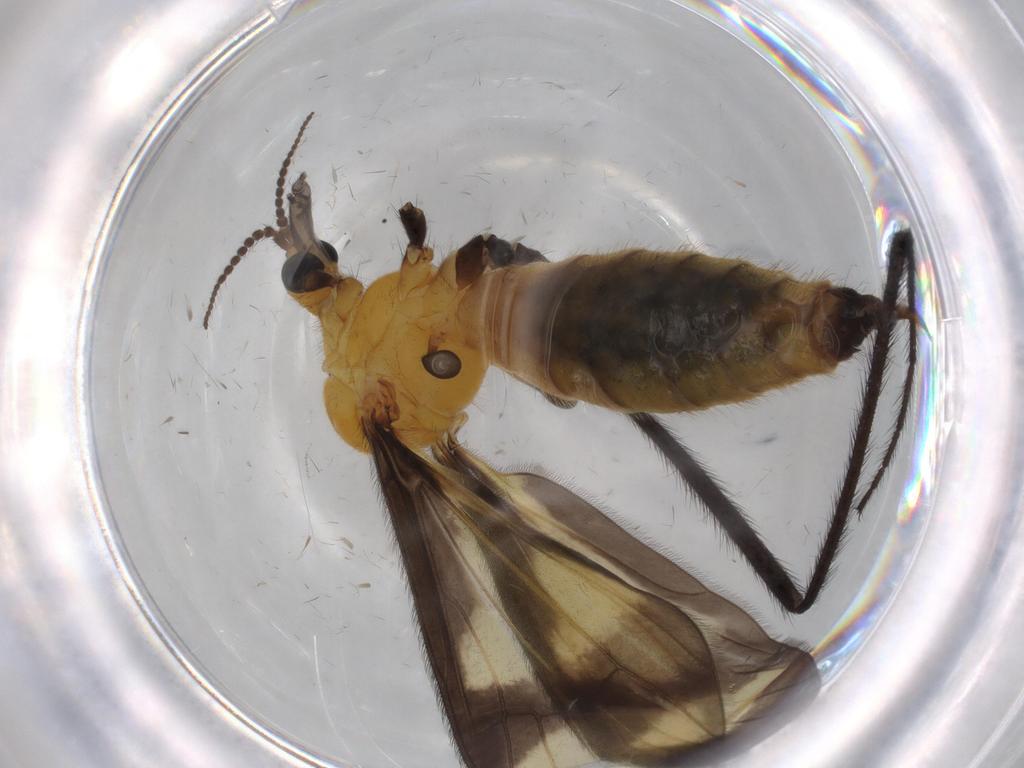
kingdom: Animalia
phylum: Arthropoda
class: Insecta
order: Diptera
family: Limoniidae
